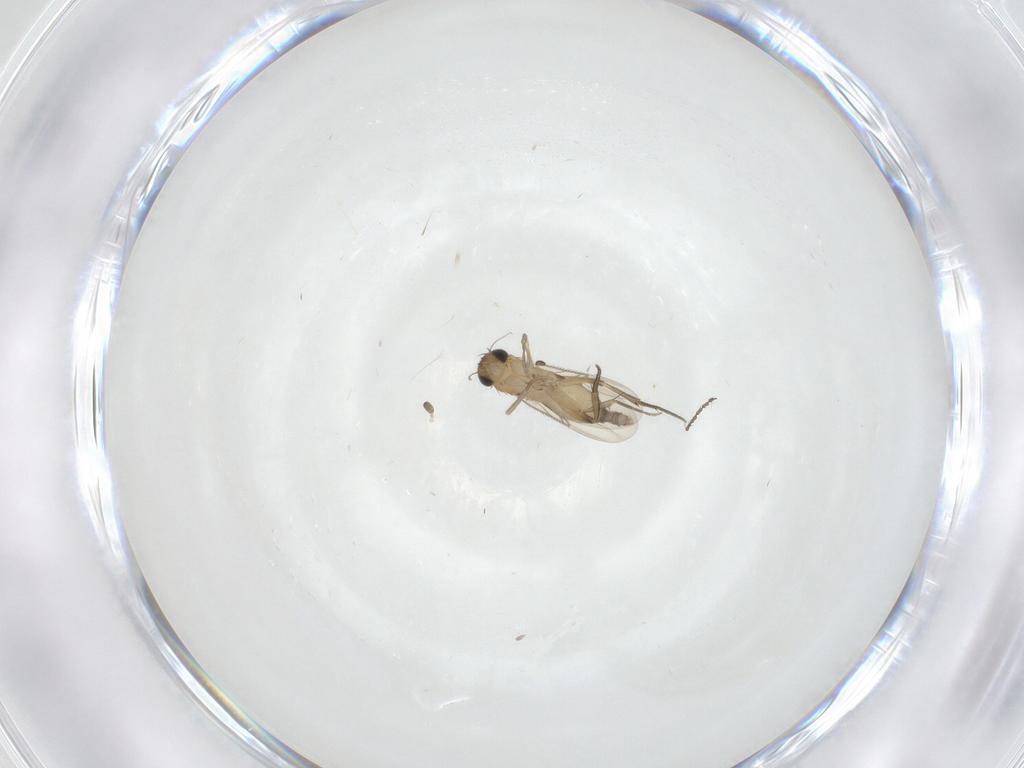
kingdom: Animalia
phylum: Arthropoda
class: Insecta
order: Diptera
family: Phoridae
